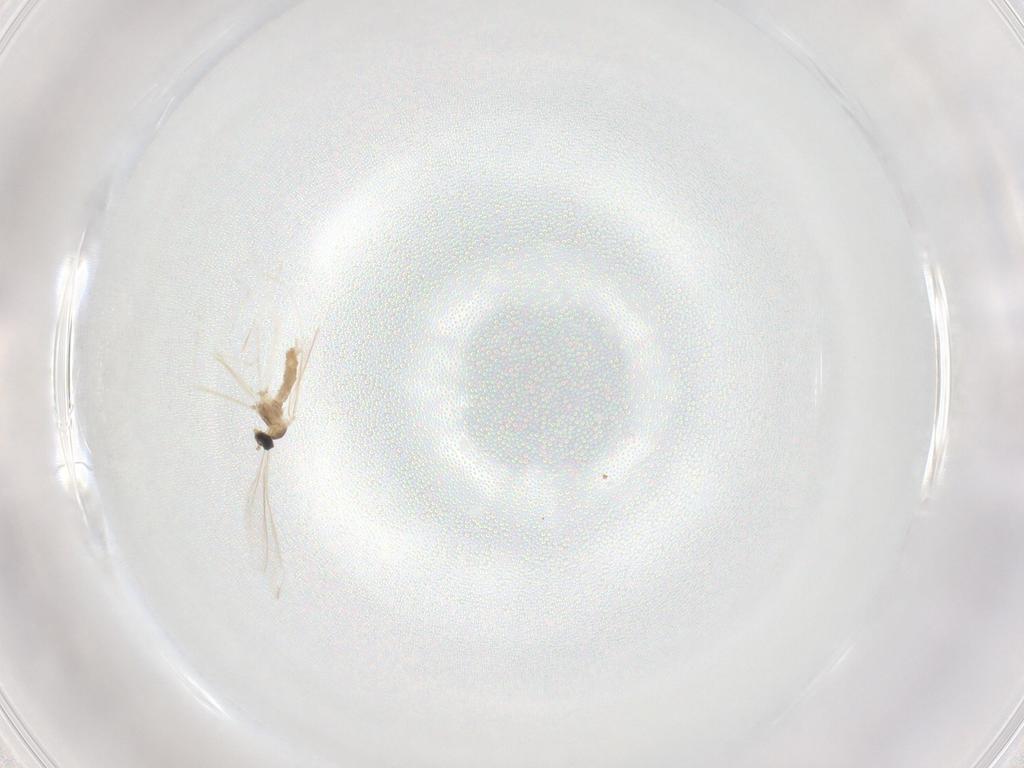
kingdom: Animalia
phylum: Arthropoda
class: Insecta
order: Diptera
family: Cecidomyiidae
